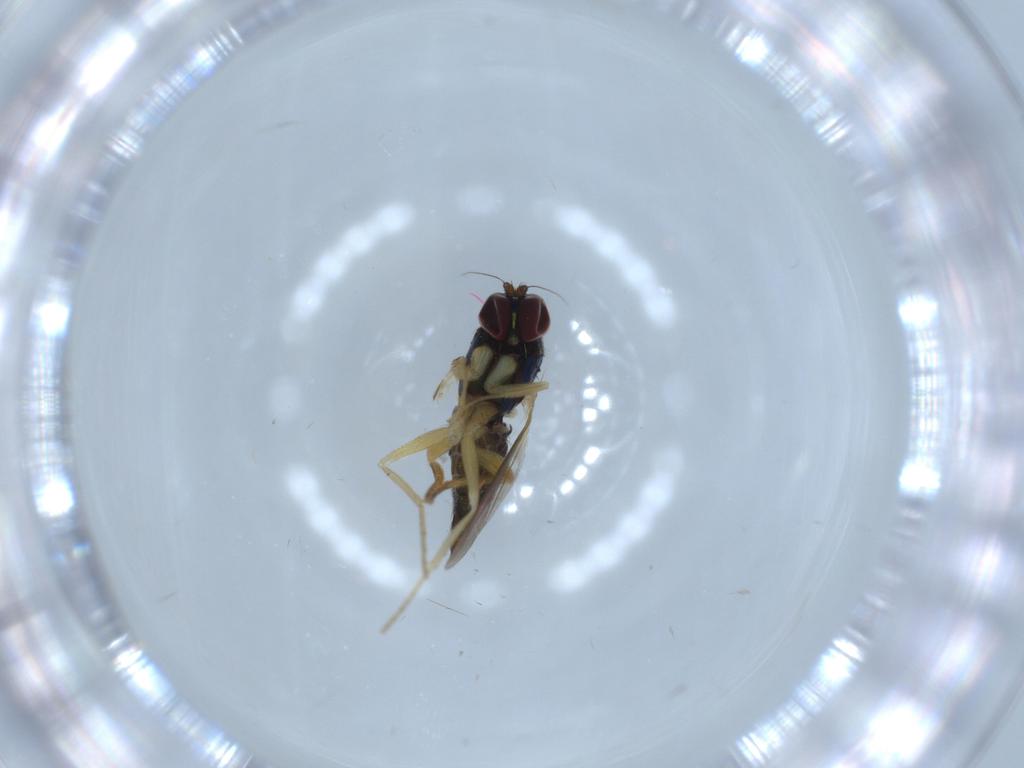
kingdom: Animalia
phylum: Arthropoda
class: Insecta
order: Diptera
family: Dolichopodidae
